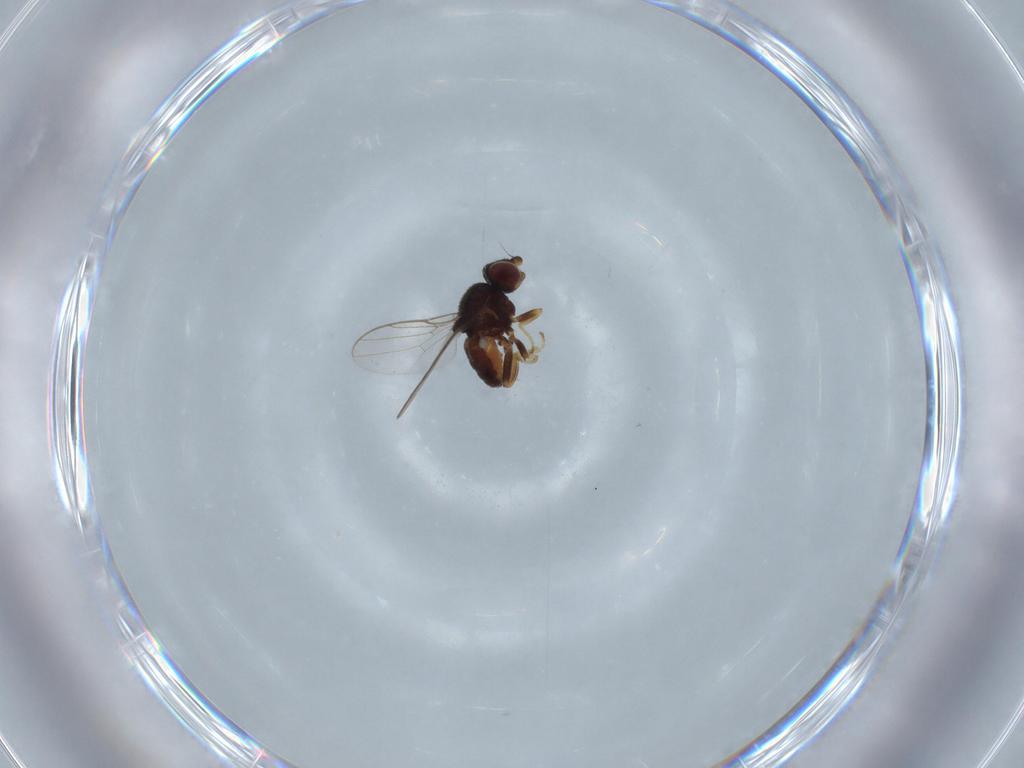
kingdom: Animalia
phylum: Arthropoda
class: Insecta
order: Diptera
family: Chloropidae
